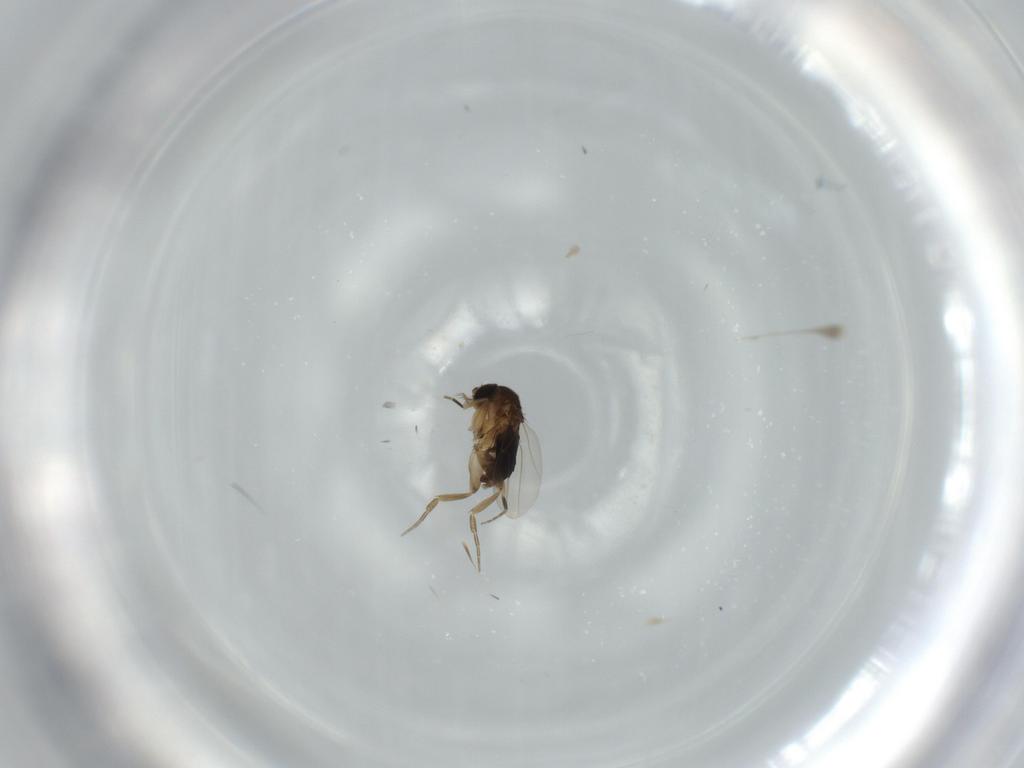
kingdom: Animalia
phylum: Arthropoda
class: Insecta
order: Diptera
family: Phoridae
